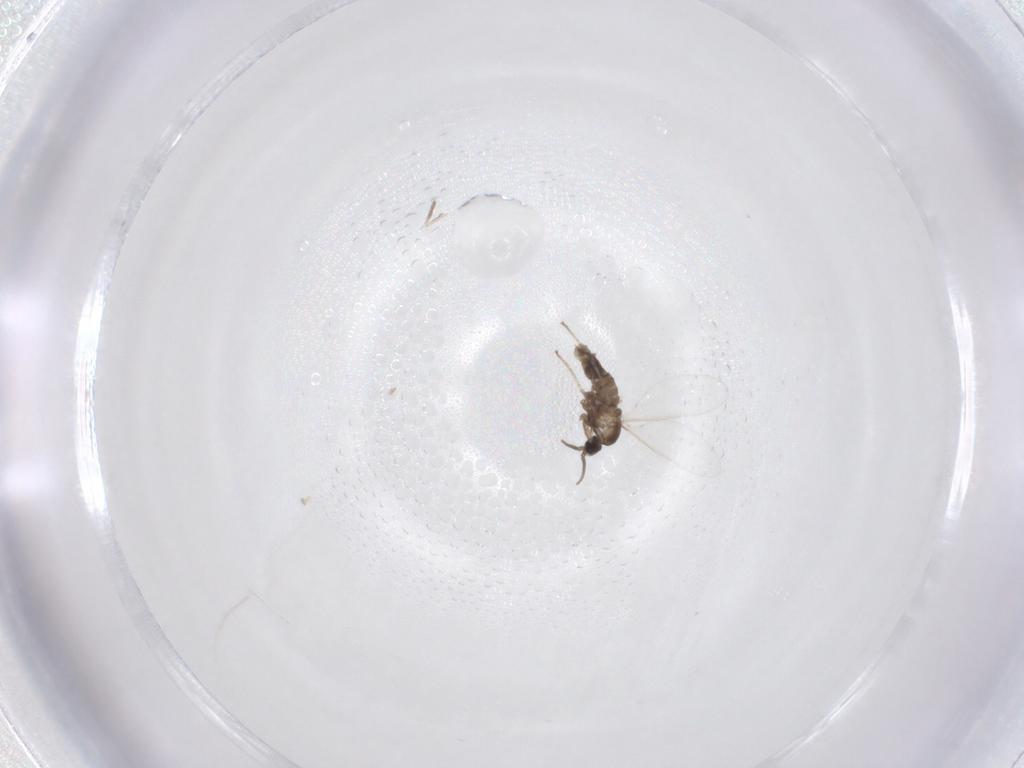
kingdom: Animalia
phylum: Arthropoda
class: Insecta
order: Diptera
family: Cecidomyiidae
